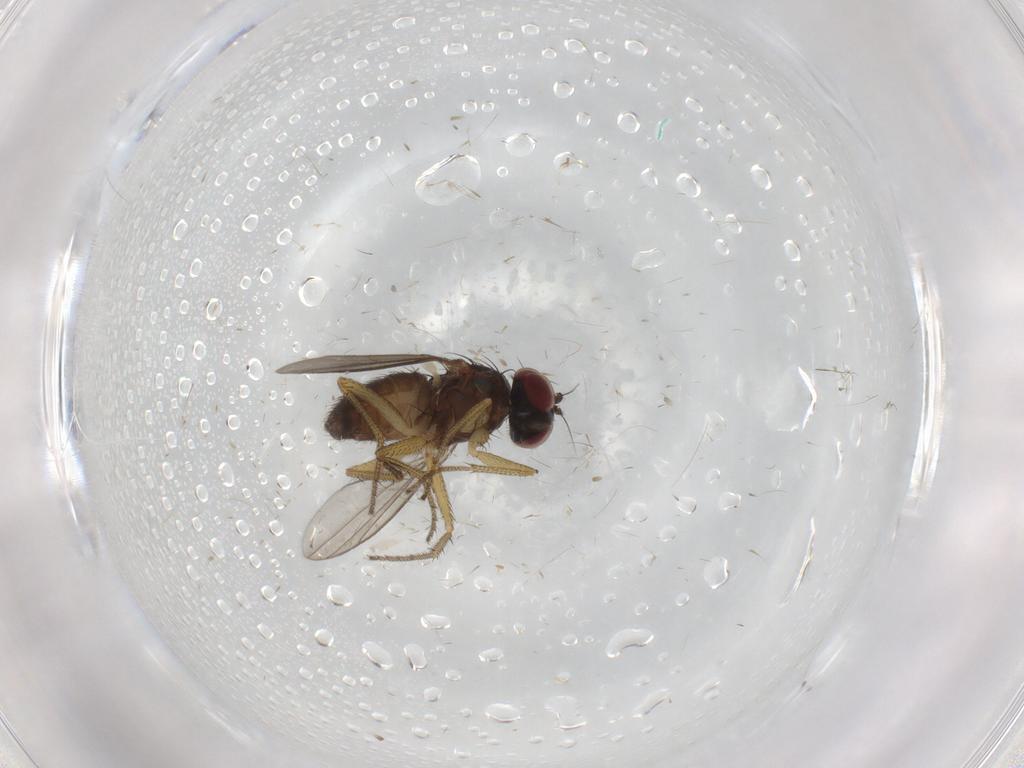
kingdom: Animalia
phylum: Arthropoda
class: Insecta
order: Diptera
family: Dolichopodidae
